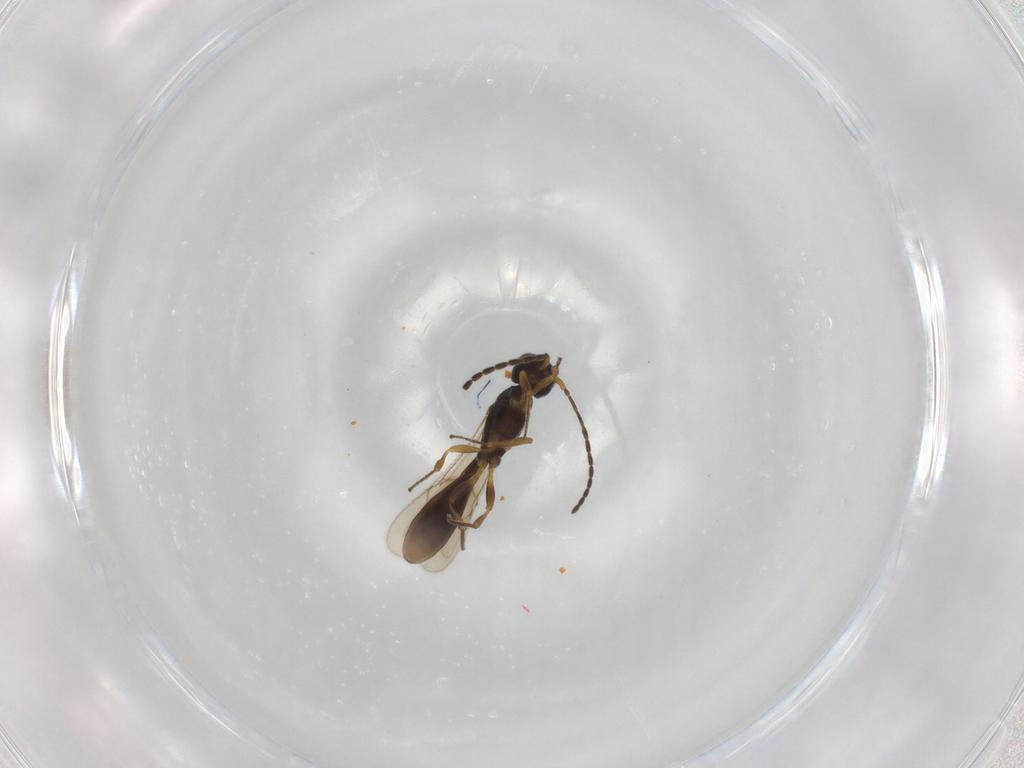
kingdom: Animalia
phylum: Arthropoda
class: Insecta
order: Hymenoptera
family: Scelionidae
